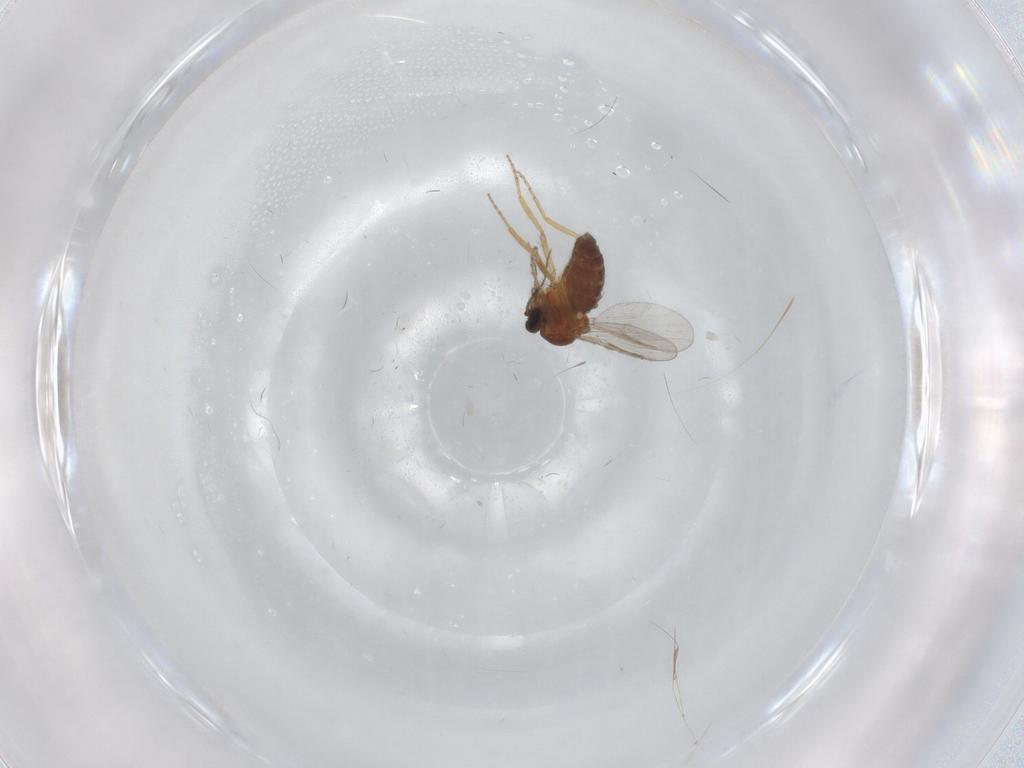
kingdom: Animalia
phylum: Arthropoda
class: Insecta
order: Diptera
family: Ceratopogonidae
